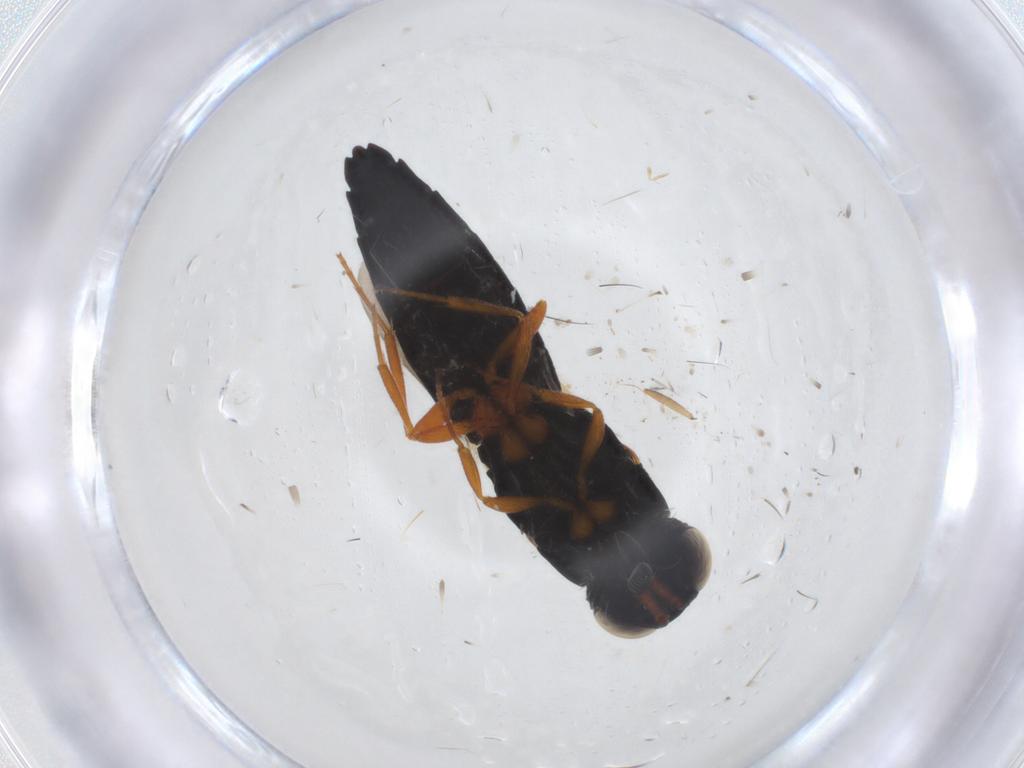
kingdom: Animalia
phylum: Arthropoda
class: Insecta
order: Hymenoptera
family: Scelionidae
